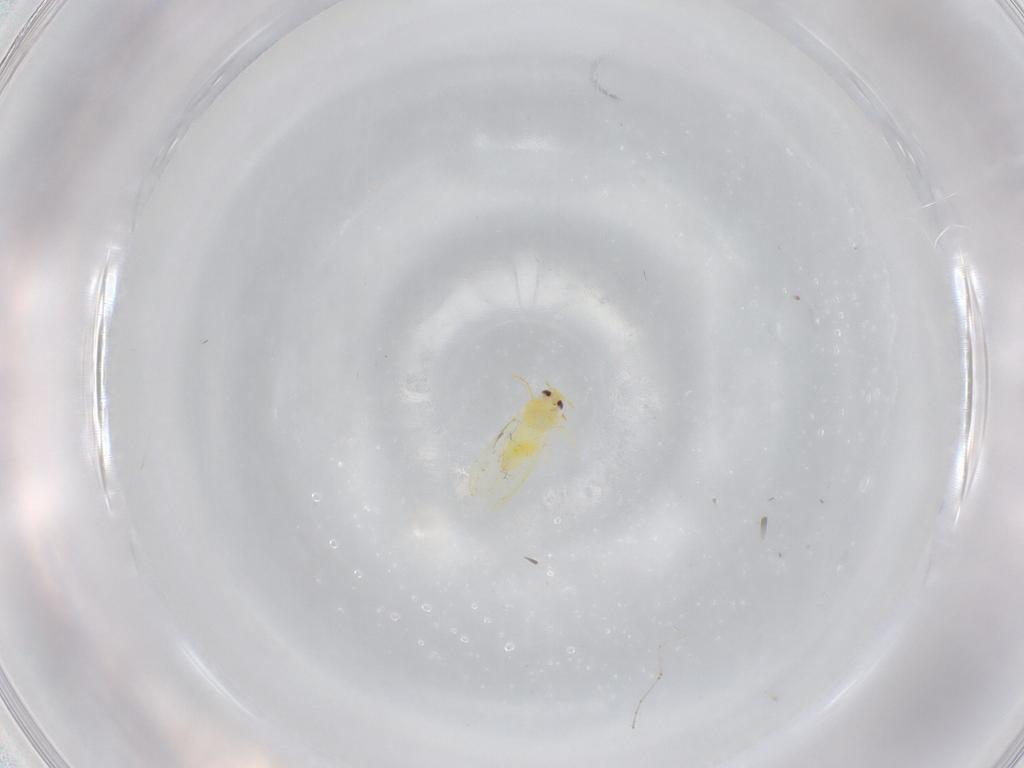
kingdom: Animalia
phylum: Arthropoda
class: Insecta
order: Hemiptera
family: Aleyrodidae
